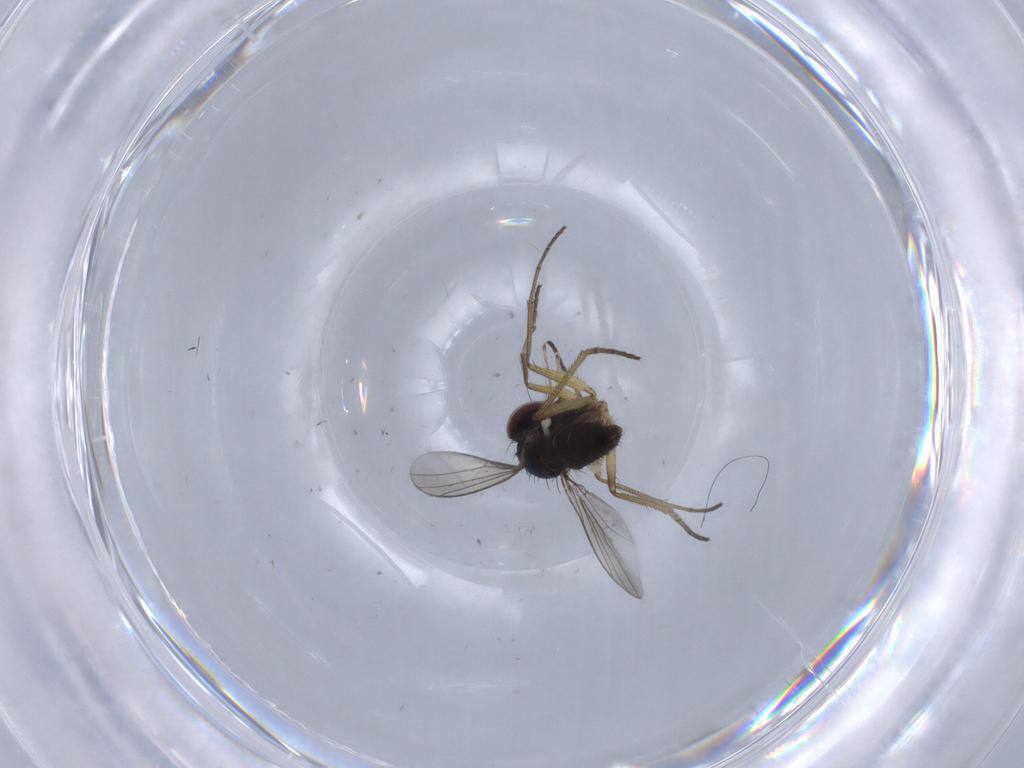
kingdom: Animalia
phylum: Arthropoda
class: Insecta
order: Diptera
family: Dolichopodidae
